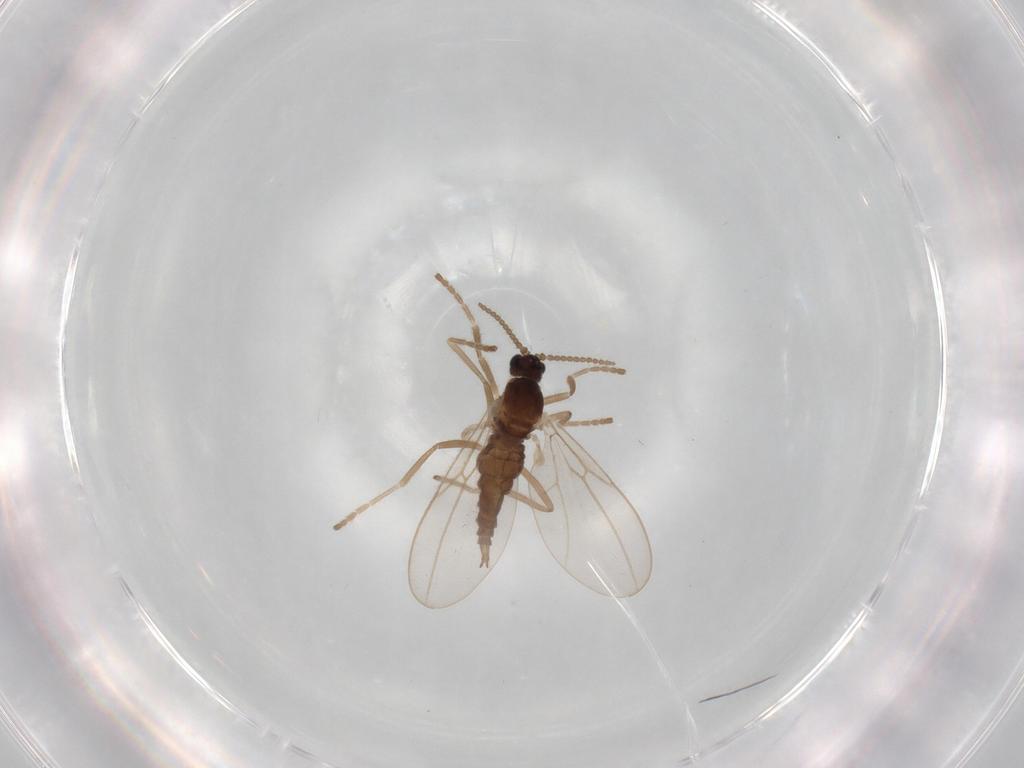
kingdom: Animalia
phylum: Arthropoda
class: Insecta
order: Diptera
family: Cecidomyiidae
